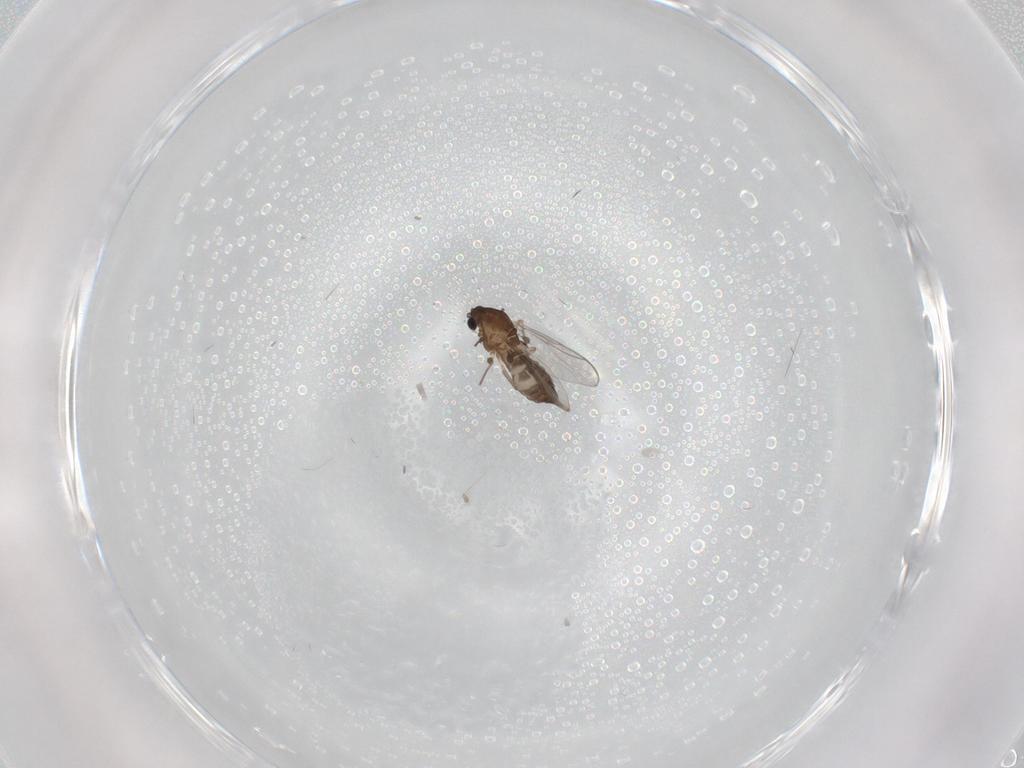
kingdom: Animalia
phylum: Arthropoda
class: Insecta
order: Diptera
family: Chironomidae
